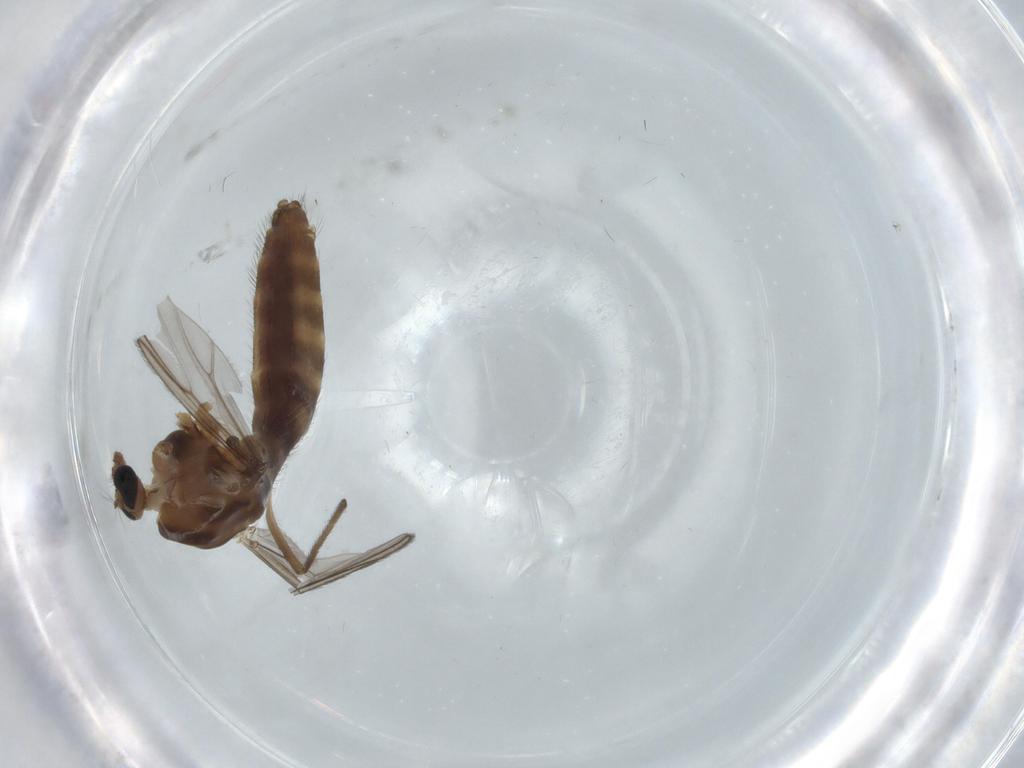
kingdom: Animalia
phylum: Arthropoda
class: Insecta
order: Diptera
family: Chironomidae
